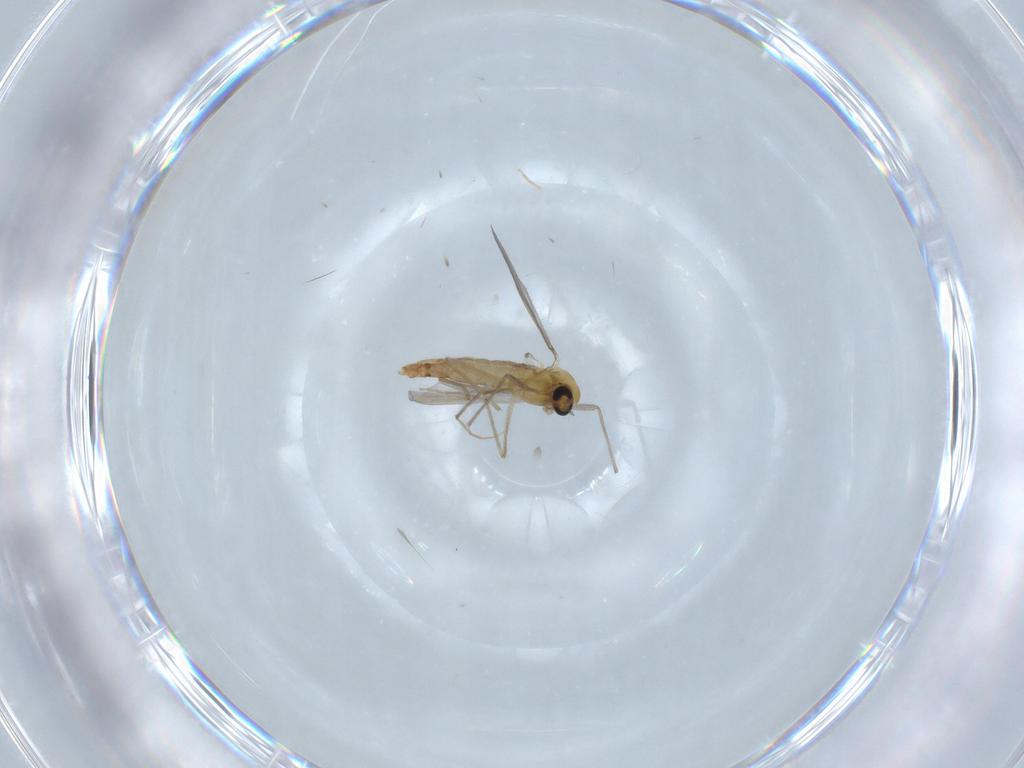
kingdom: Animalia
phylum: Arthropoda
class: Insecta
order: Diptera
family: Chironomidae
